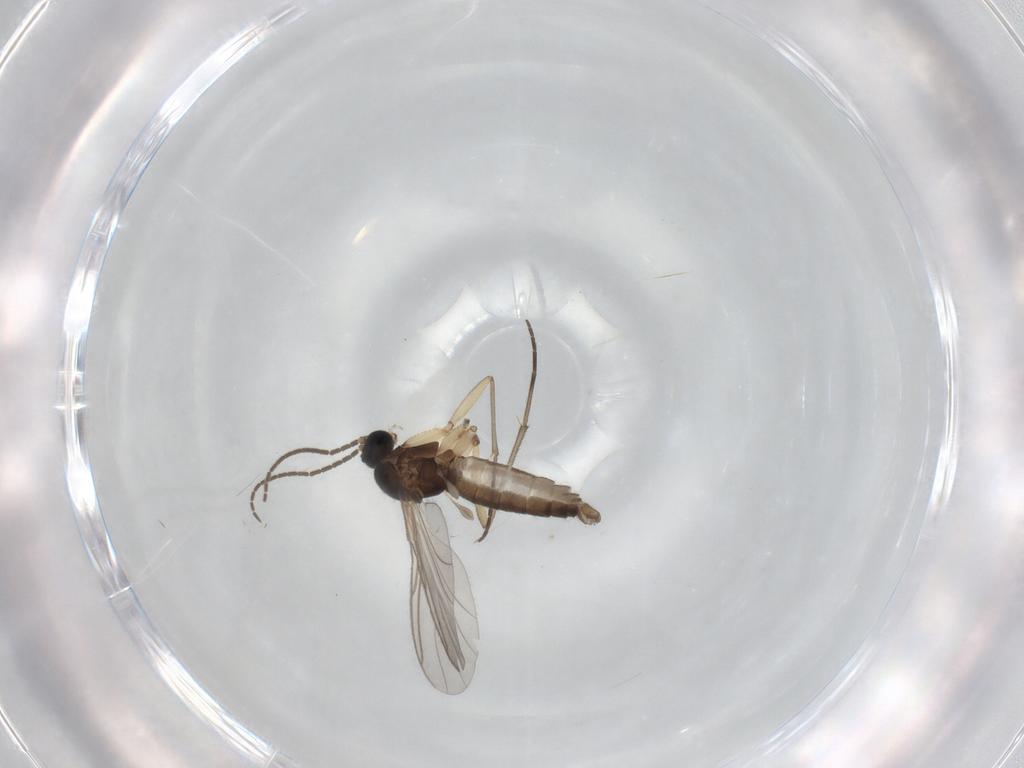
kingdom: Animalia
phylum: Arthropoda
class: Insecta
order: Diptera
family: Sciaridae
